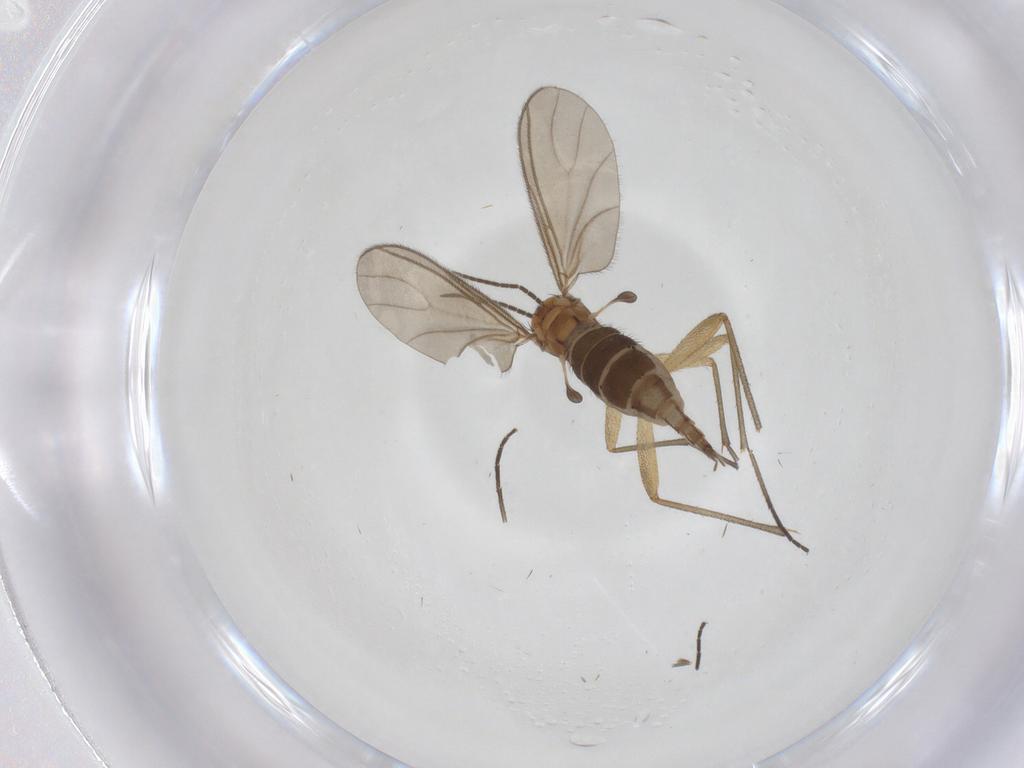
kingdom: Animalia
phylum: Arthropoda
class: Insecta
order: Diptera
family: Sciaridae
